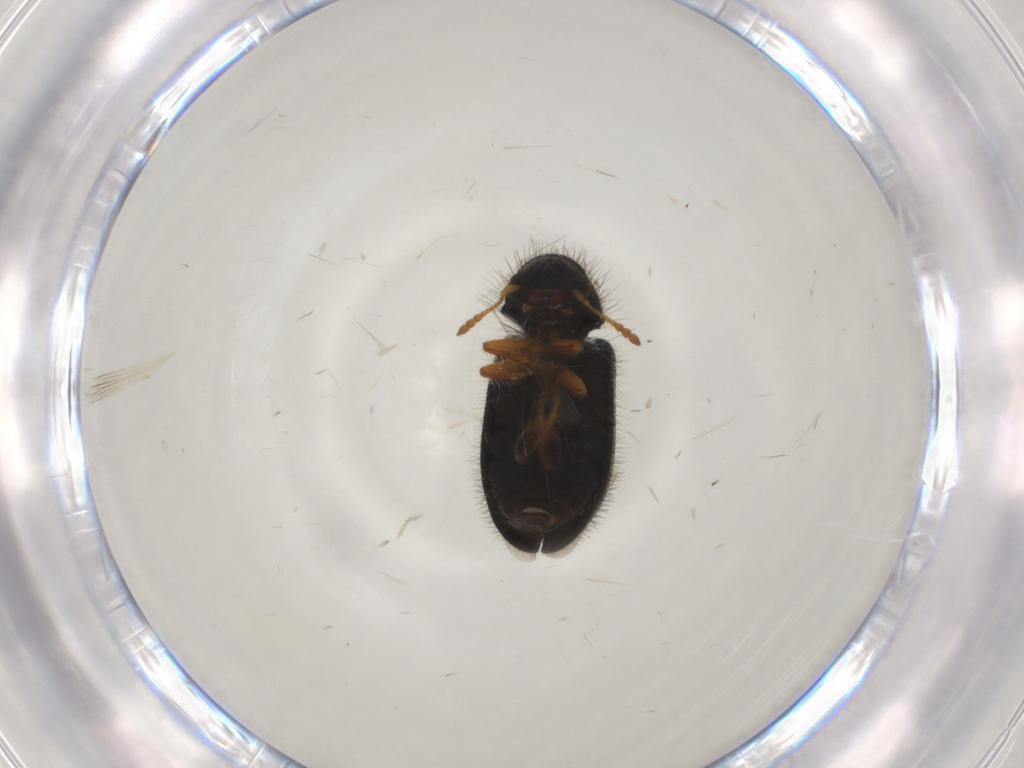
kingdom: Animalia
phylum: Arthropoda
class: Insecta
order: Coleoptera
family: Cleridae
